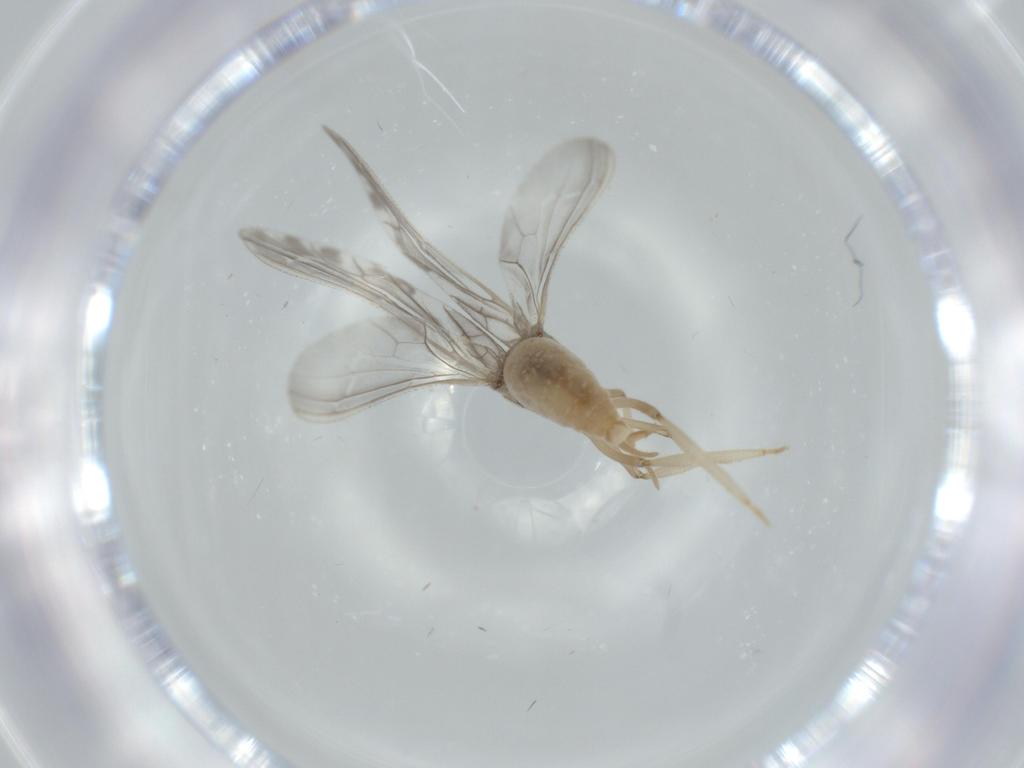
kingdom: Animalia
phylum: Arthropoda
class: Insecta
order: Neuroptera
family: Coniopterygidae
